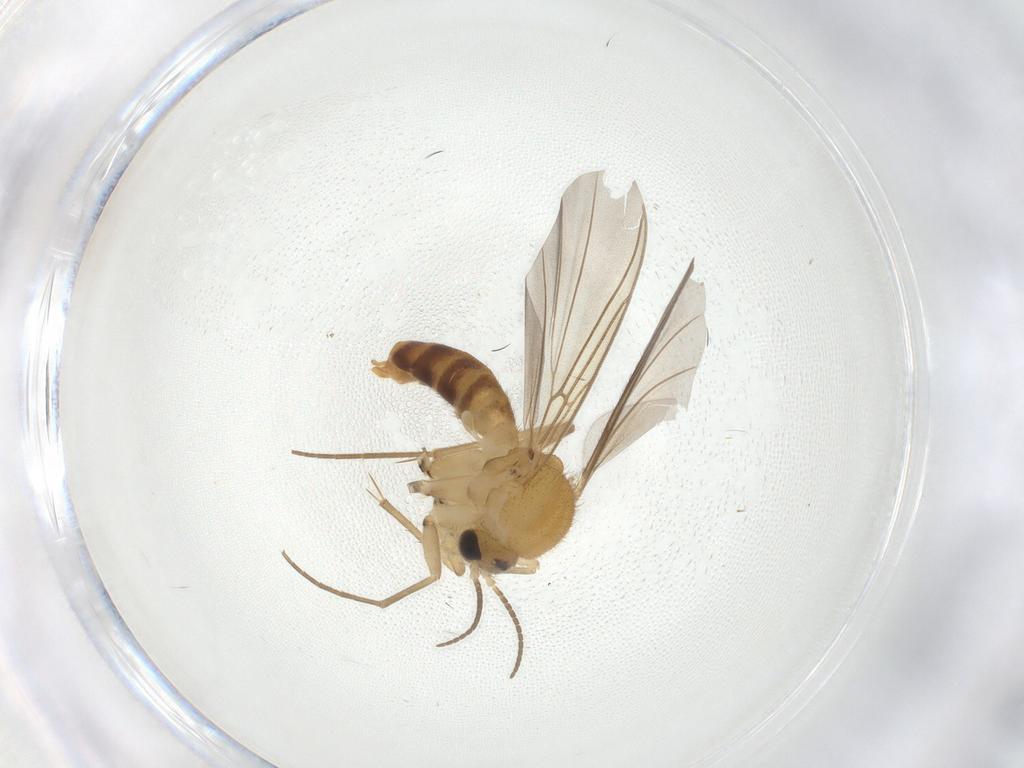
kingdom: Animalia
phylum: Arthropoda
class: Insecta
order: Diptera
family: Mycetophilidae
